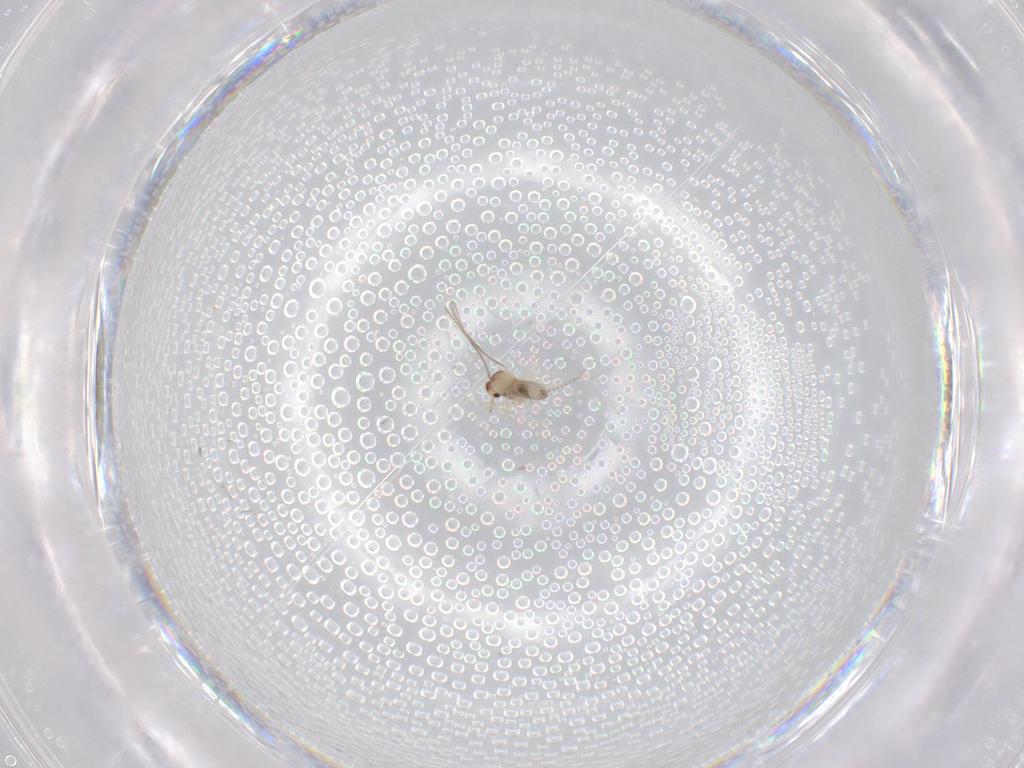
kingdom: Animalia
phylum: Arthropoda
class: Insecta
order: Diptera
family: Cecidomyiidae
